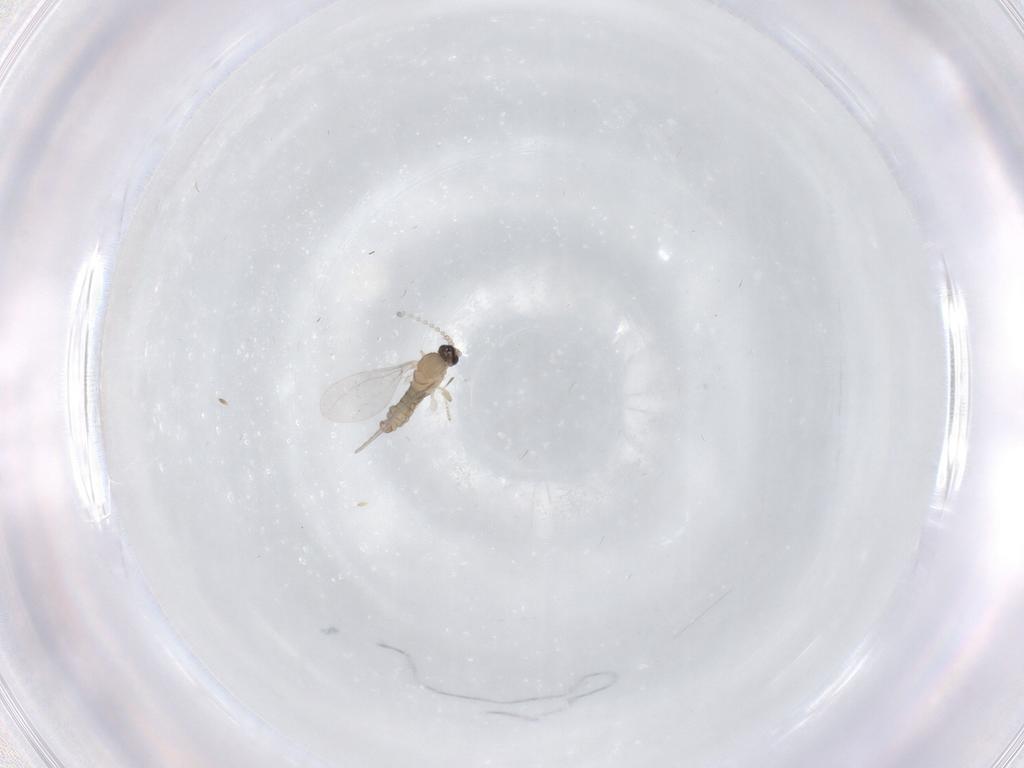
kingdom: Animalia
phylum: Arthropoda
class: Insecta
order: Diptera
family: Cecidomyiidae
